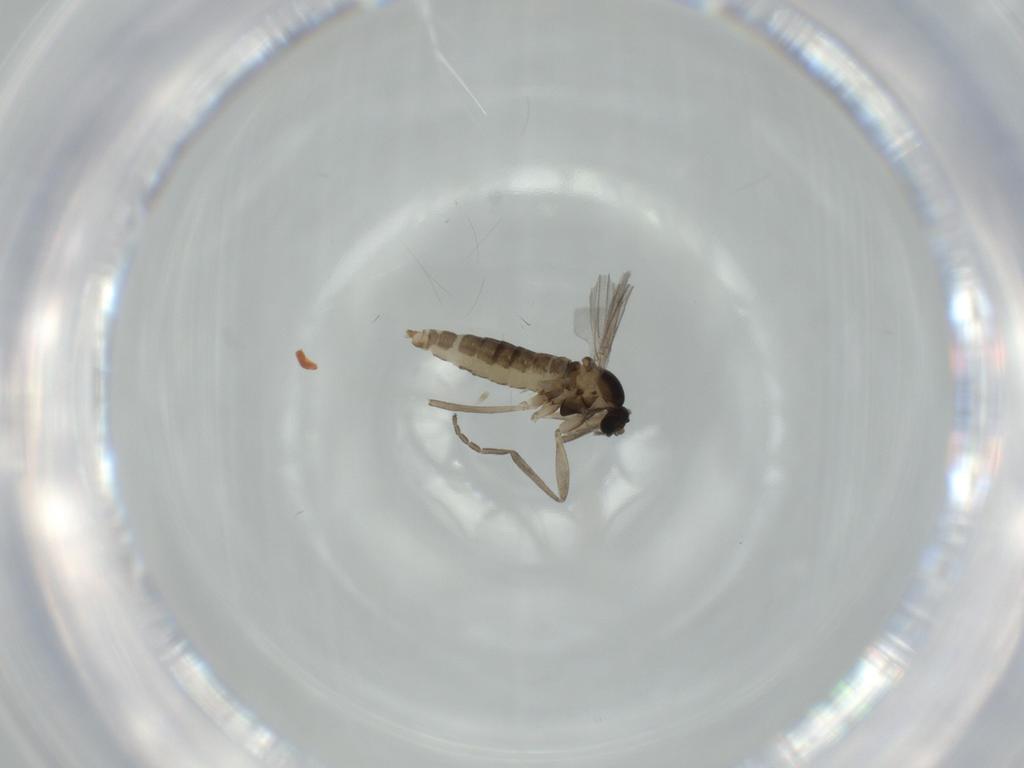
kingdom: Animalia
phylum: Arthropoda
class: Insecta
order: Diptera
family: Cecidomyiidae
